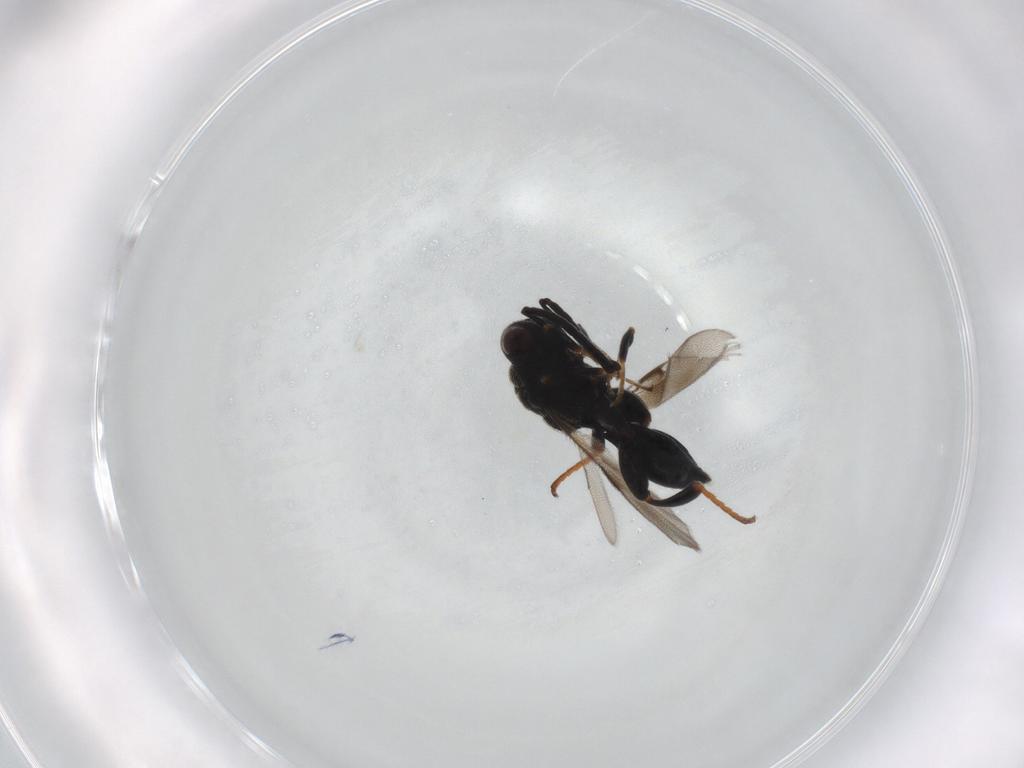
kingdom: Animalia
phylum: Arthropoda
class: Insecta
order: Hymenoptera
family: Chalcididae
